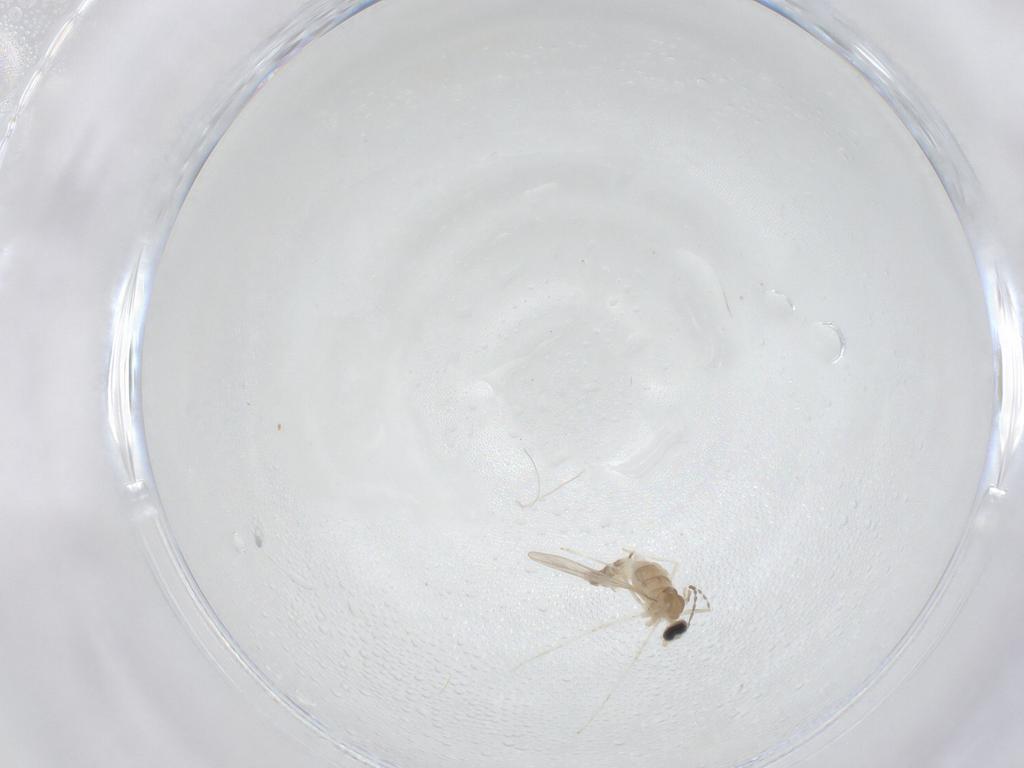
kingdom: Animalia
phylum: Arthropoda
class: Insecta
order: Diptera
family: Cecidomyiidae
